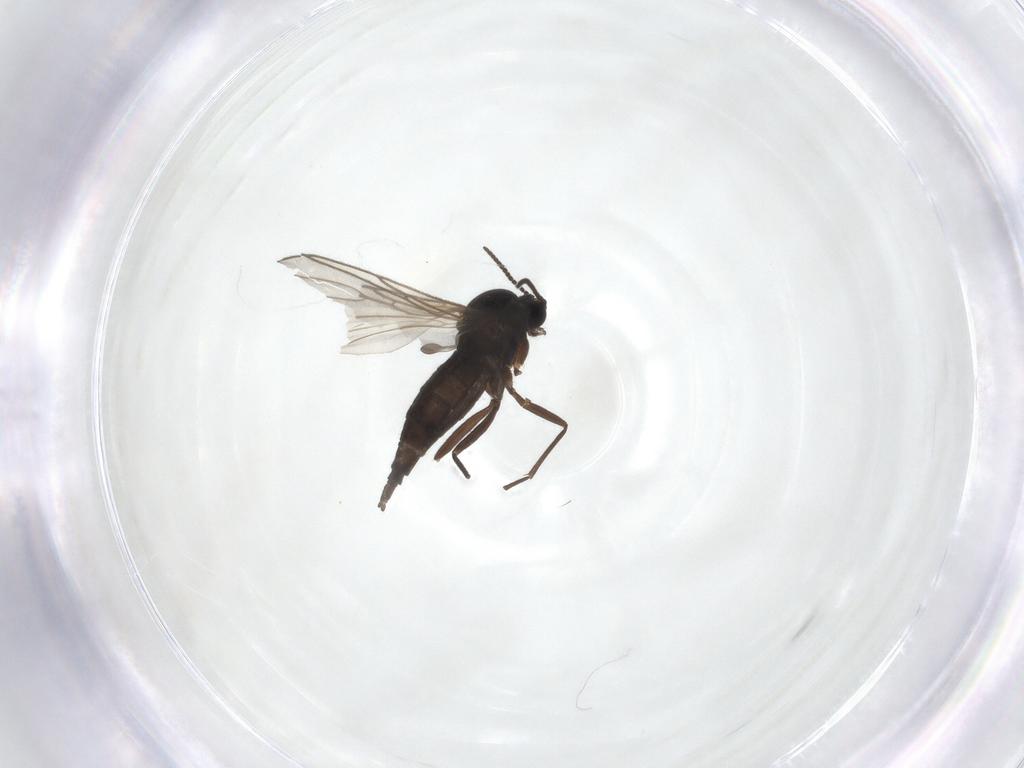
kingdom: Animalia
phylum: Arthropoda
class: Insecta
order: Diptera
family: Sciaridae
